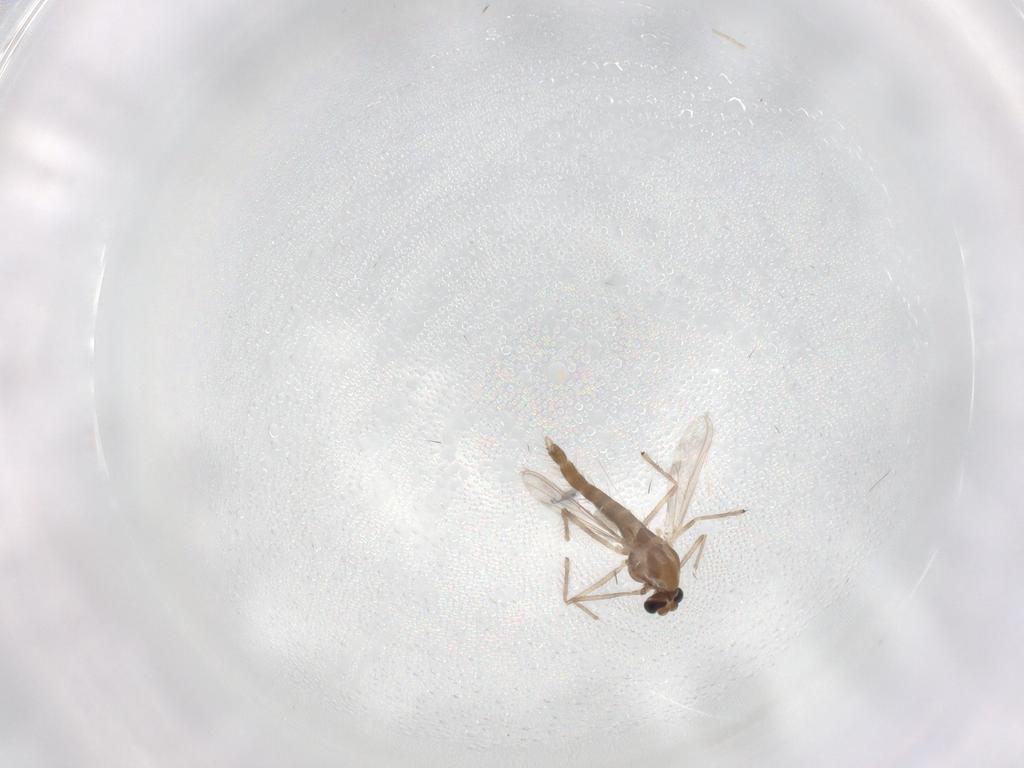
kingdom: Animalia
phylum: Arthropoda
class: Insecta
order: Diptera
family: Chironomidae
